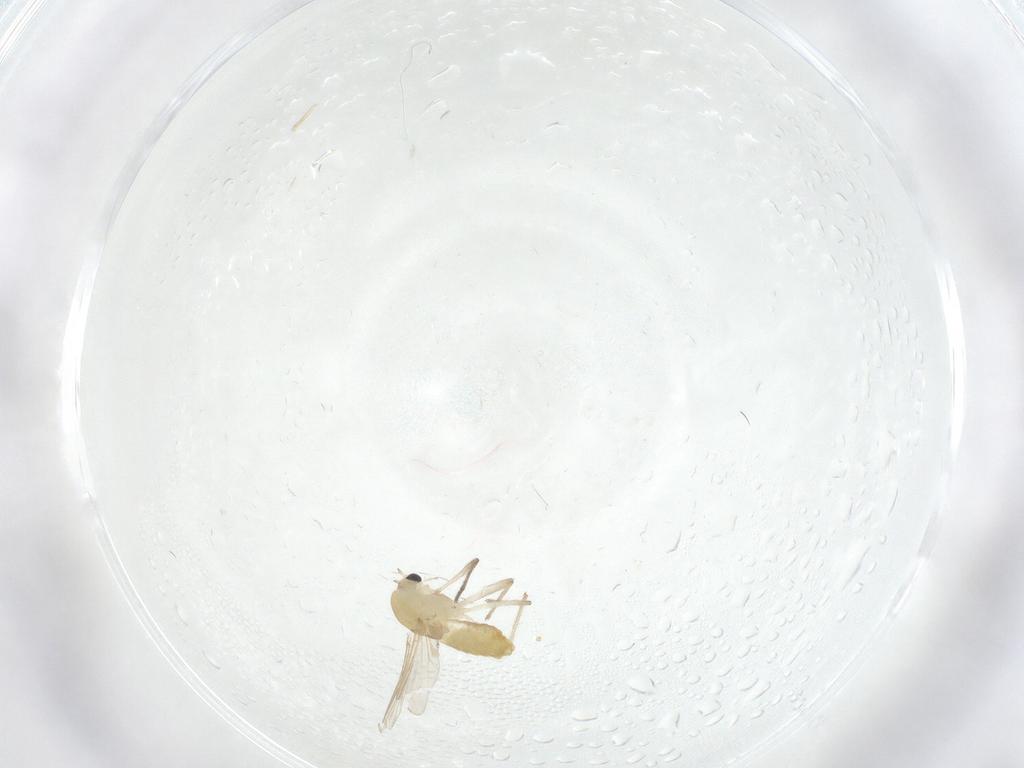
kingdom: Animalia
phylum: Arthropoda
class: Insecta
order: Diptera
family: Chironomidae
